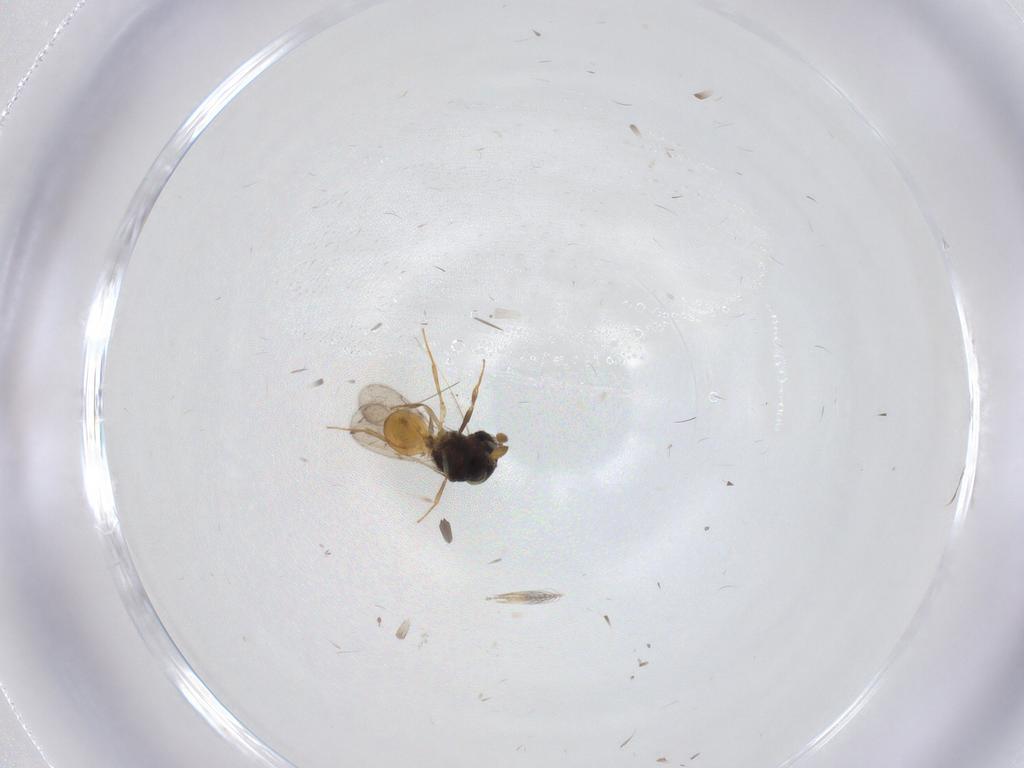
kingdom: Animalia
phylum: Arthropoda
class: Insecta
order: Hymenoptera
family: Scelionidae
